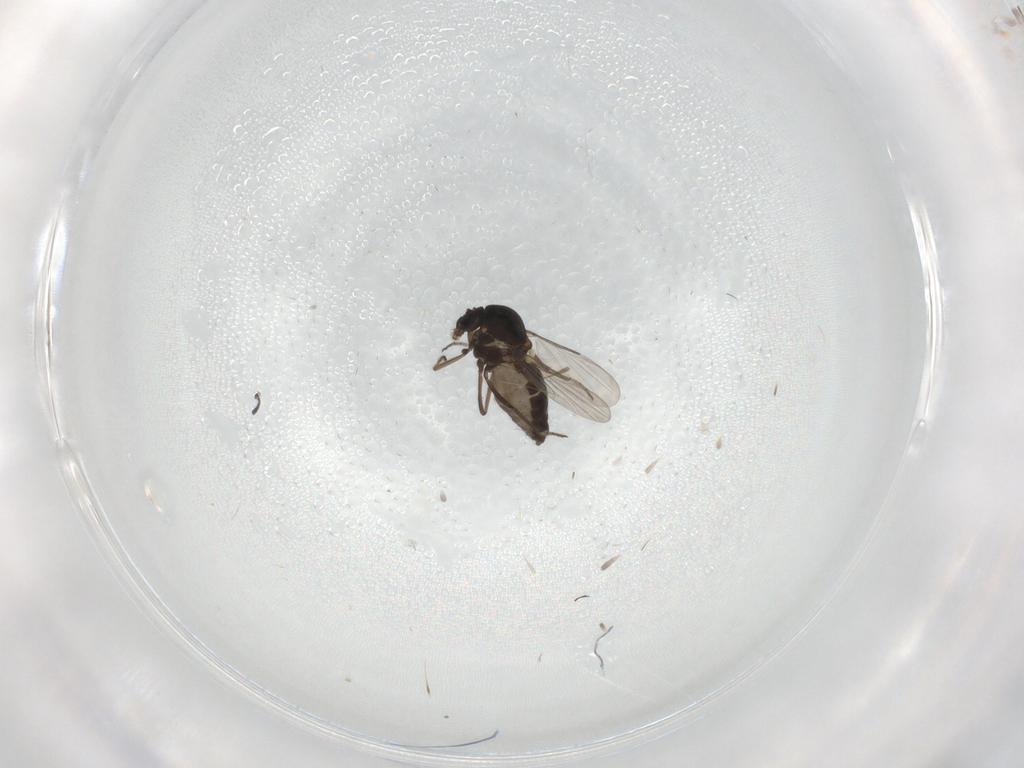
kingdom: Animalia
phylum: Arthropoda
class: Insecta
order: Diptera
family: Ceratopogonidae
